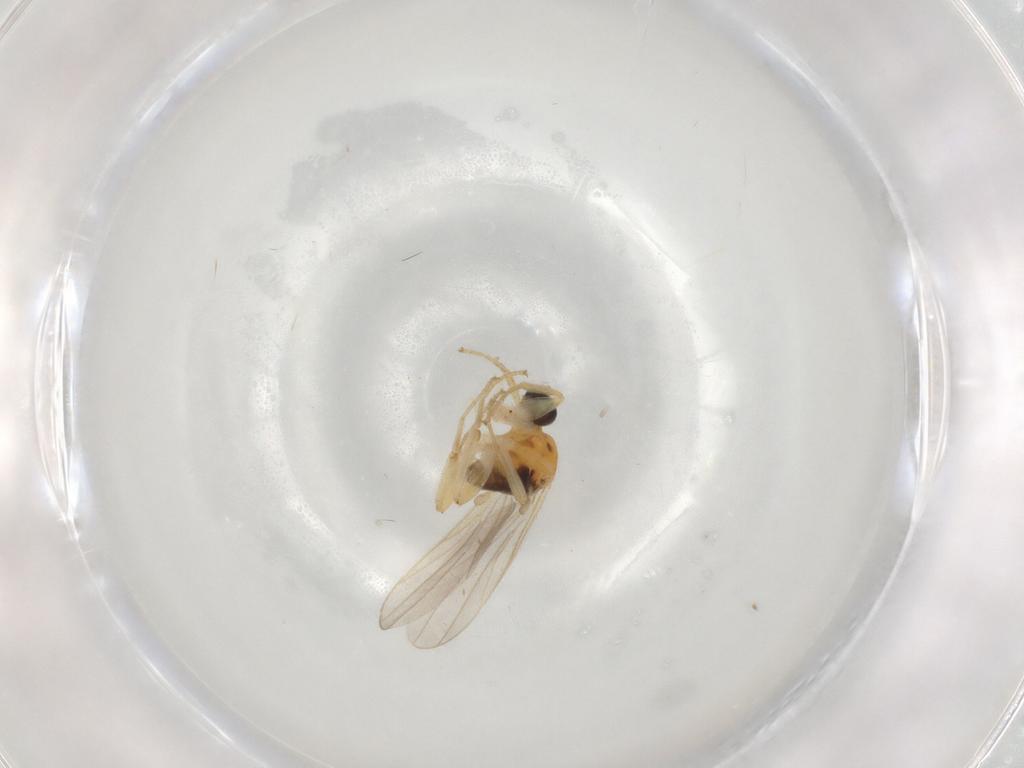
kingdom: Animalia
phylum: Arthropoda
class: Insecta
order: Diptera
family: Hybotidae
